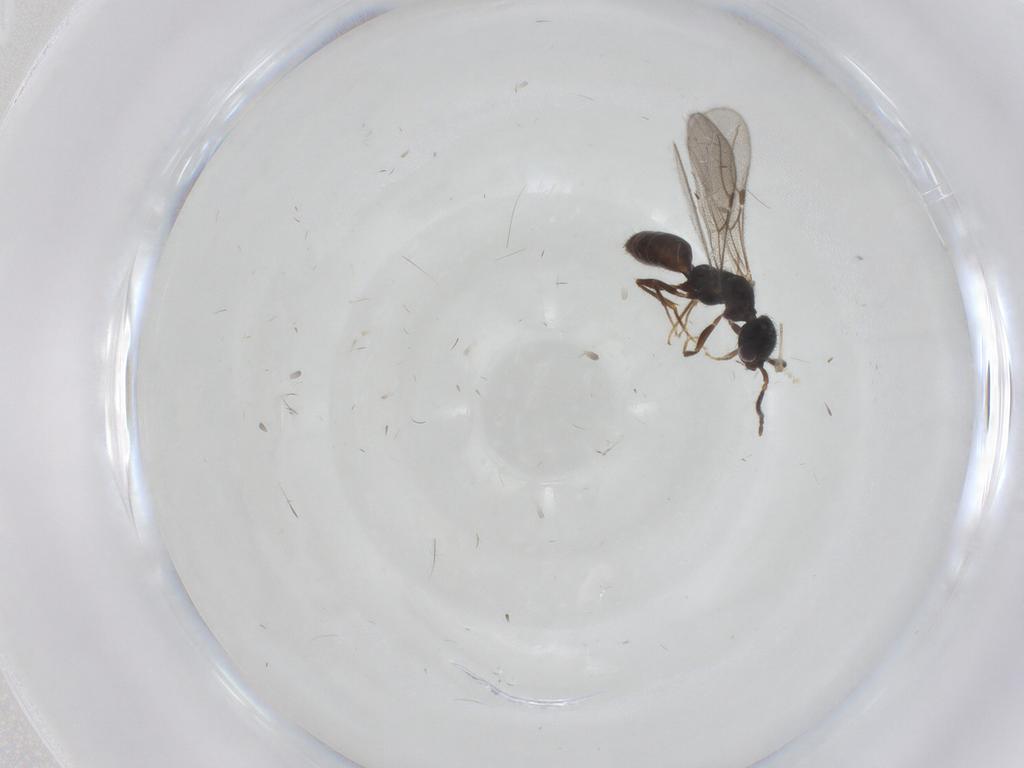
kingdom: Animalia
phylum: Arthropoda
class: Insecta
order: Hymenoptera
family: Bethylidae
